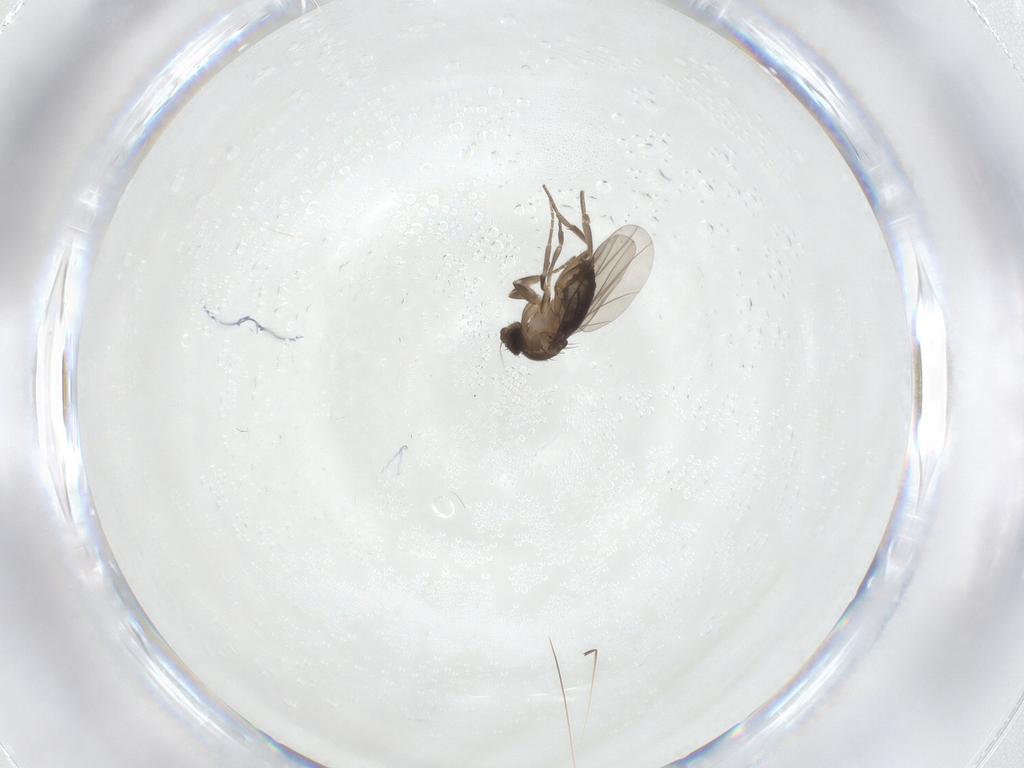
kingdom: Animalia
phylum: Arthropoda
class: Insecta
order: Diptera
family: Phoridae
